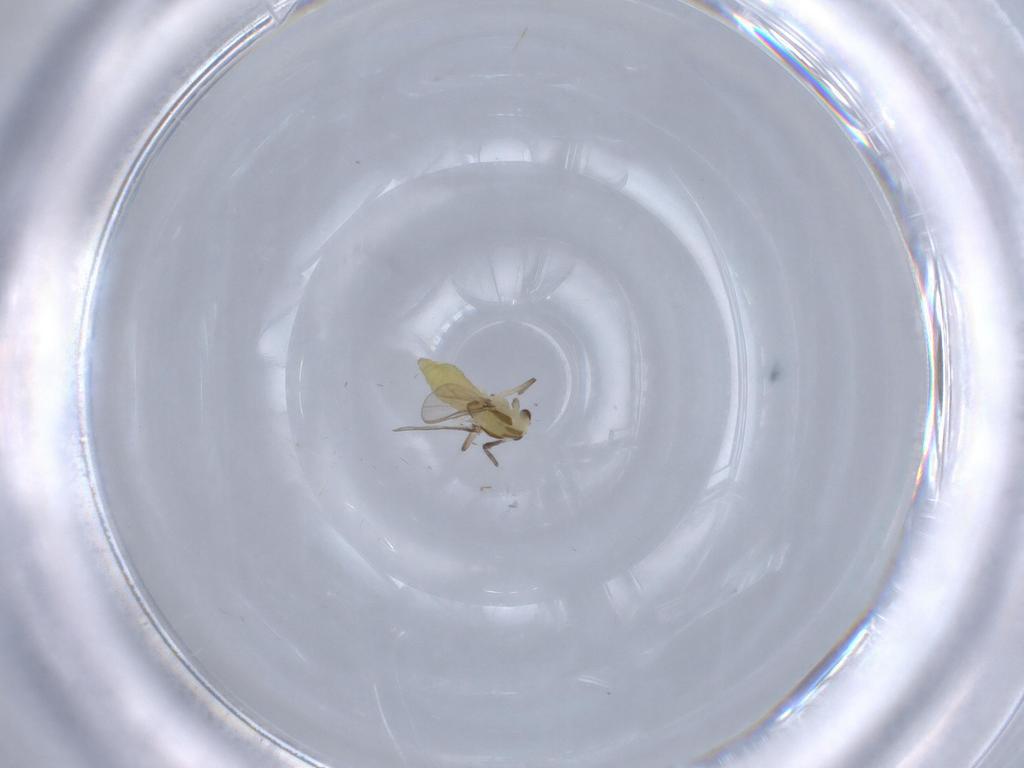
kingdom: Animalia
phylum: Arthropoda
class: Insecta
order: Diptera
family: Chironomidae
